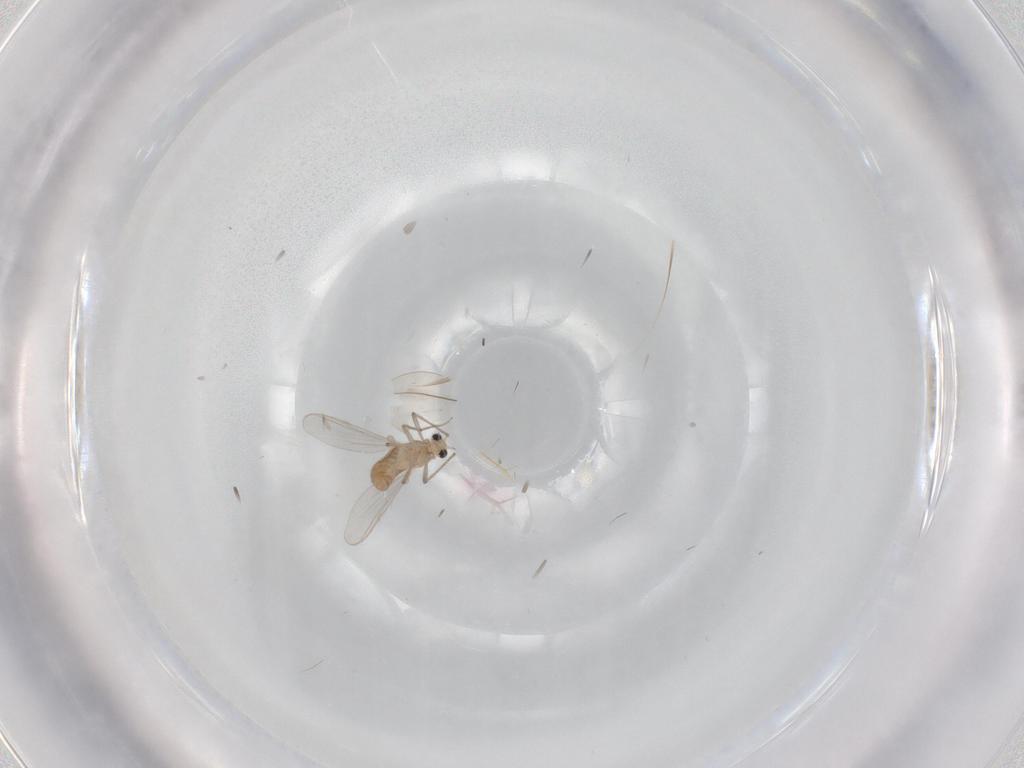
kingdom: Animalia
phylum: Arthropoda
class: Insecta
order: Diptera
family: Chironomidae
